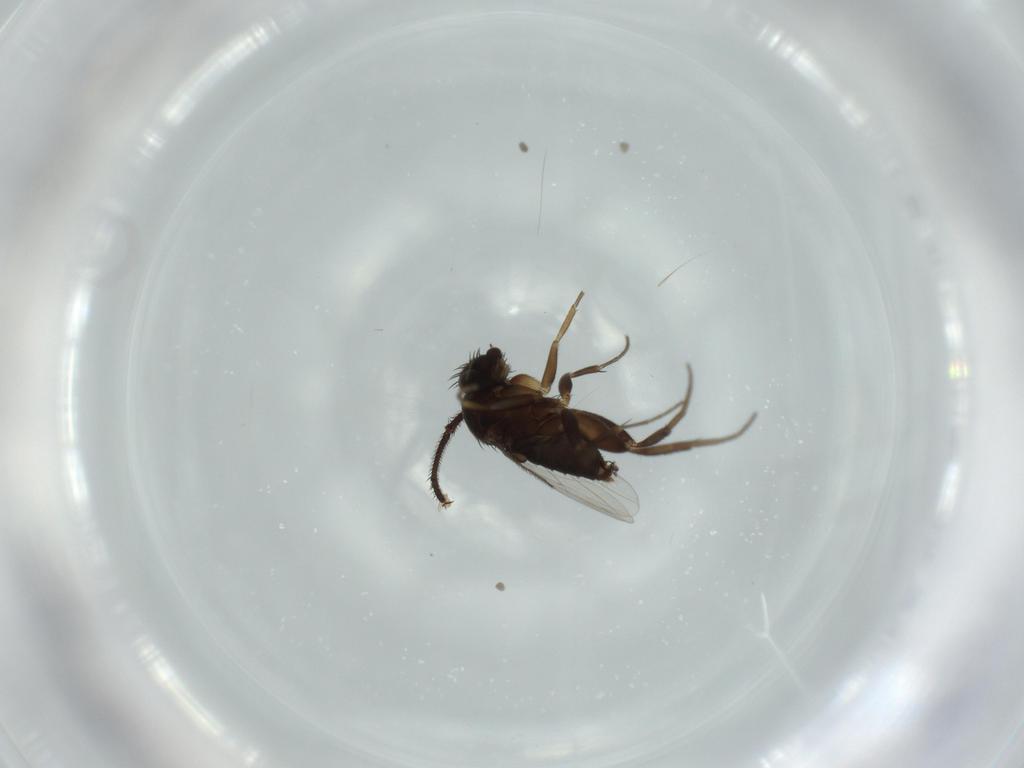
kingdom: Animalia
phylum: Arthropoda
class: Insecta
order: Diptera
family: Phoridae
